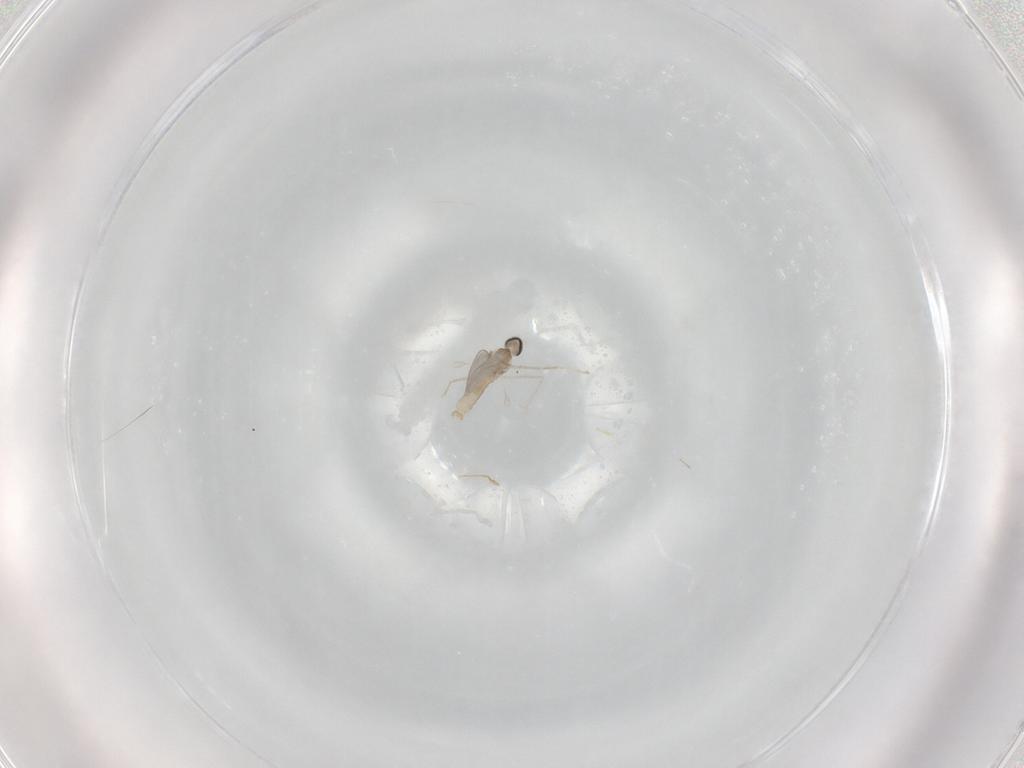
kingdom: Animalia
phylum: Arthropoda
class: Insecta
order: Diptera
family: Cecidomyiidae
